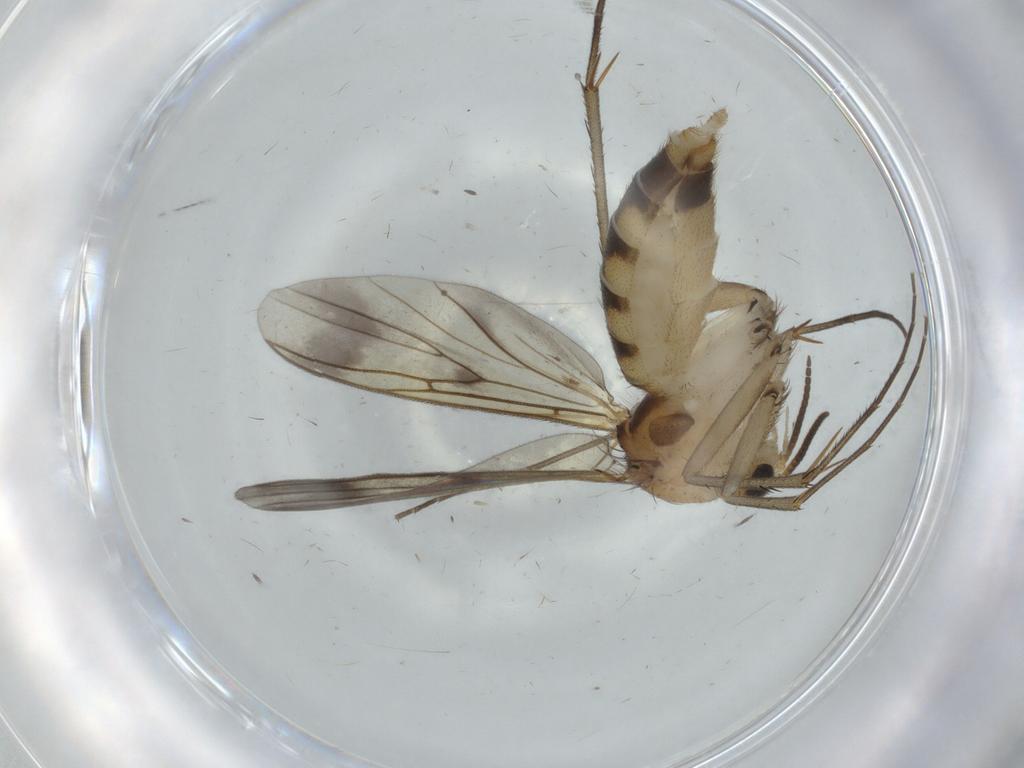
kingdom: Animalia
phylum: Arthropoda
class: Insecta
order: Diptera
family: Mycetophilidae
